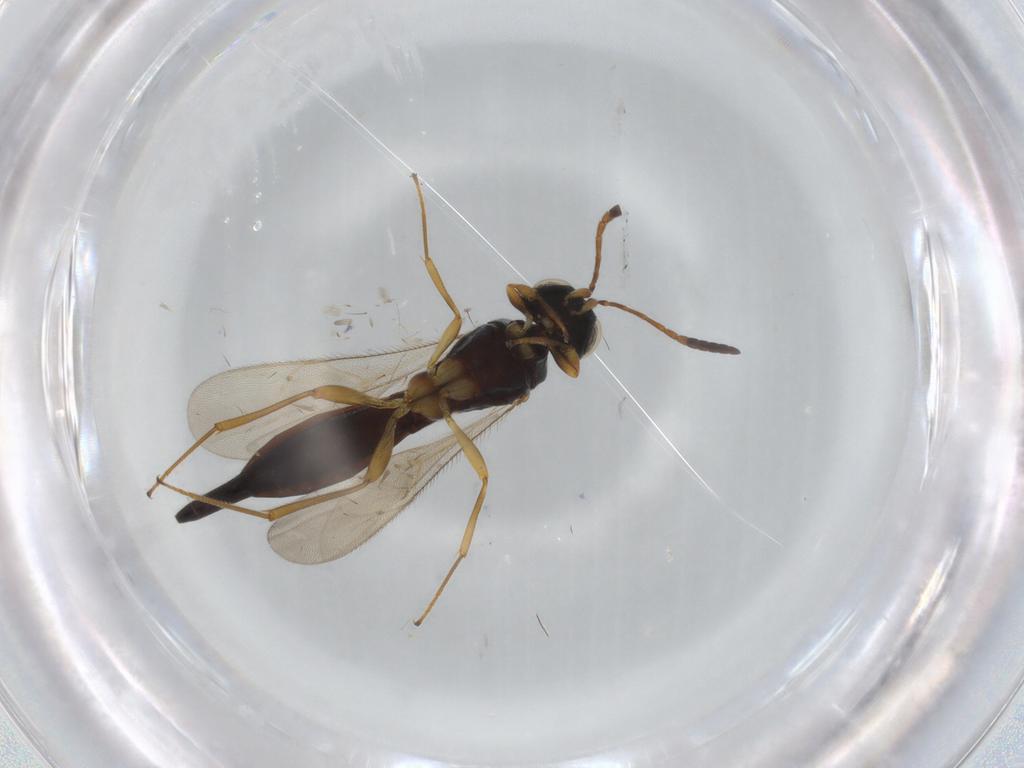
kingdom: Animalia
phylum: Arthropoda
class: Insecta
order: Hymenoptera
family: Scelionidae
